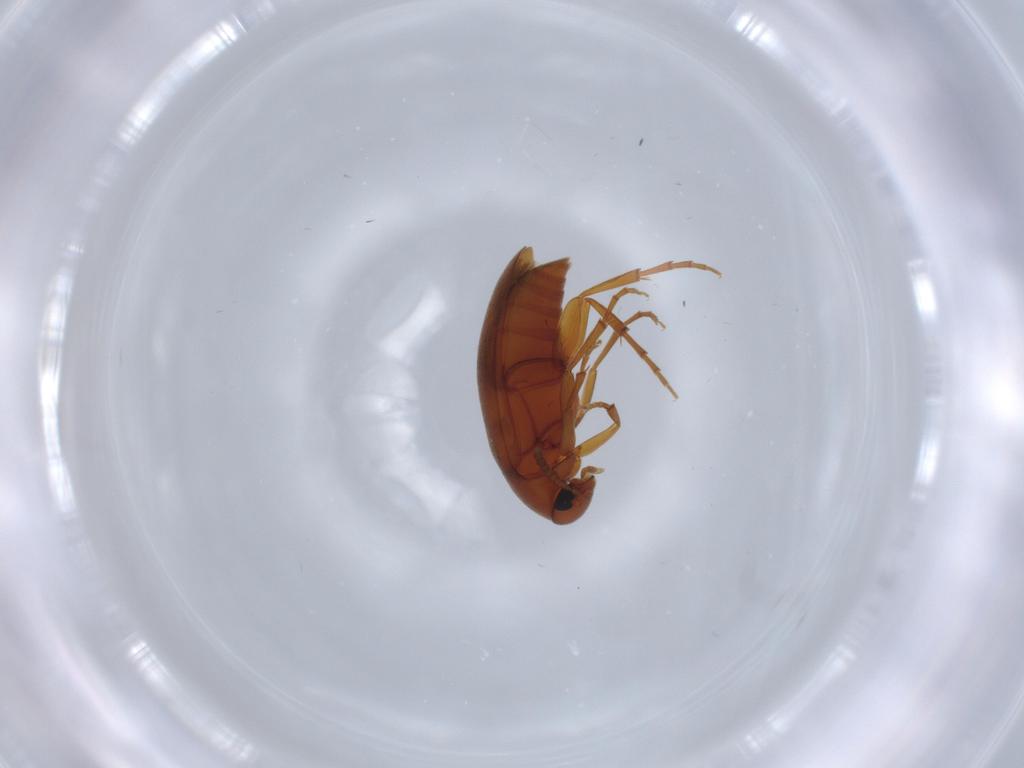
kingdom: Animalia
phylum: Arthropoda
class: Insecta
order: Coleoptera
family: Scraptiidae
